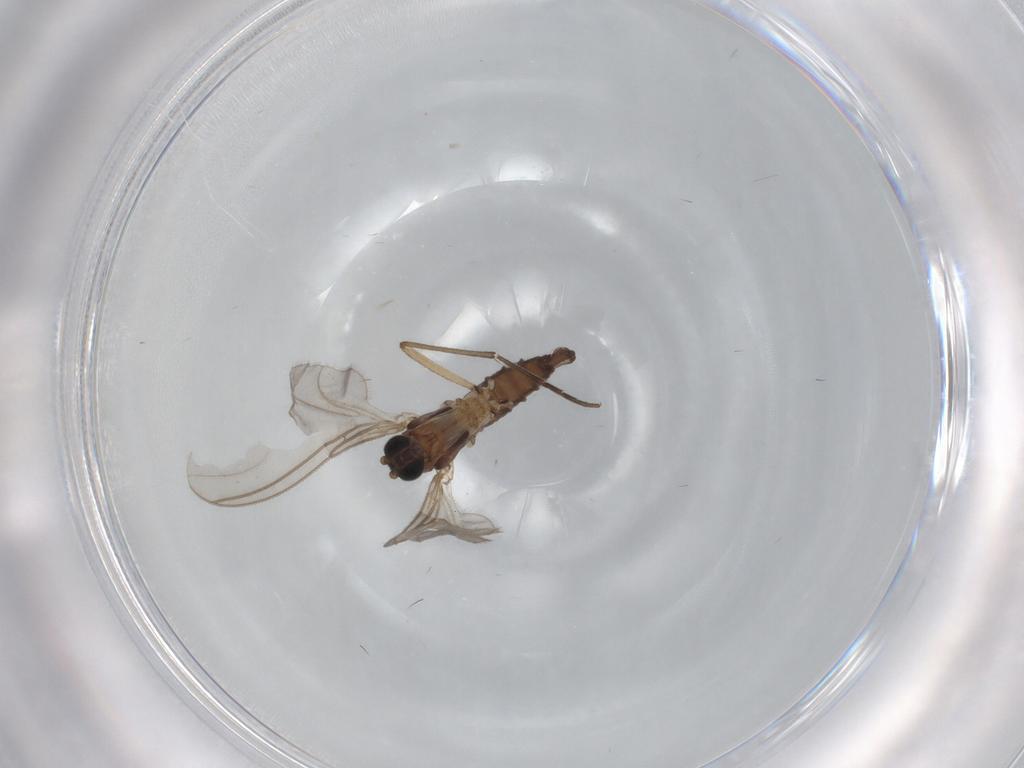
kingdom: Animalia
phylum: Arthropoda
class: Insecta
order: Diptera
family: Sciaridae
